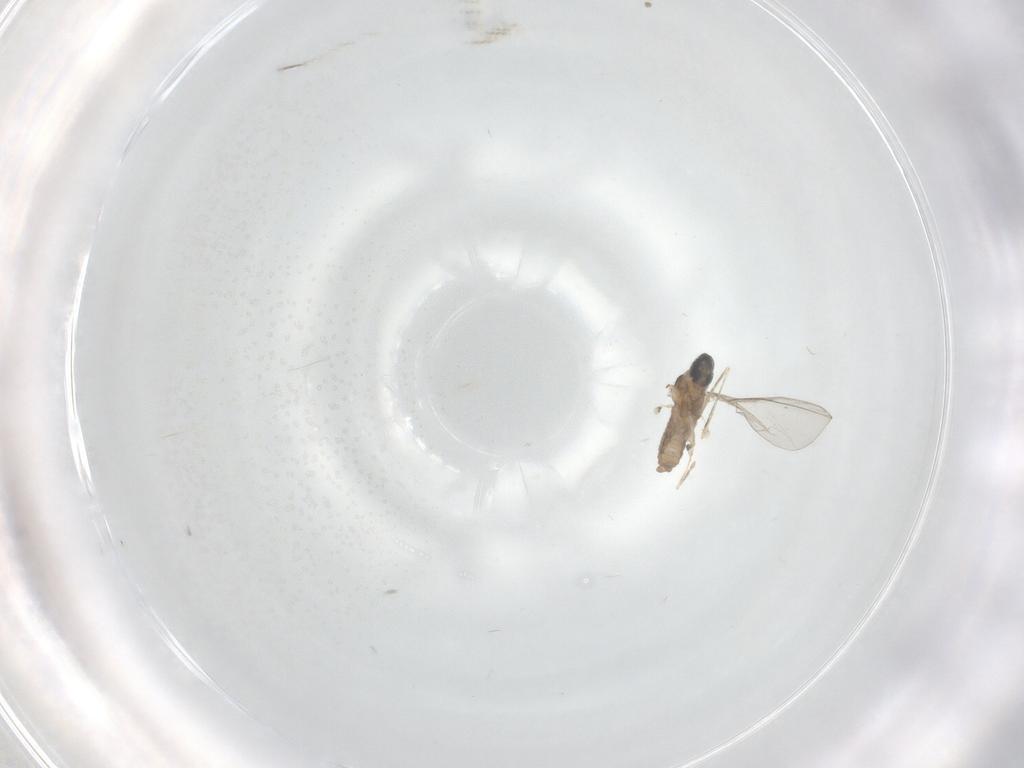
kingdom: Animalia
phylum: Arthropoda
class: Insecta
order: Diptera
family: Cecidomyiidae
